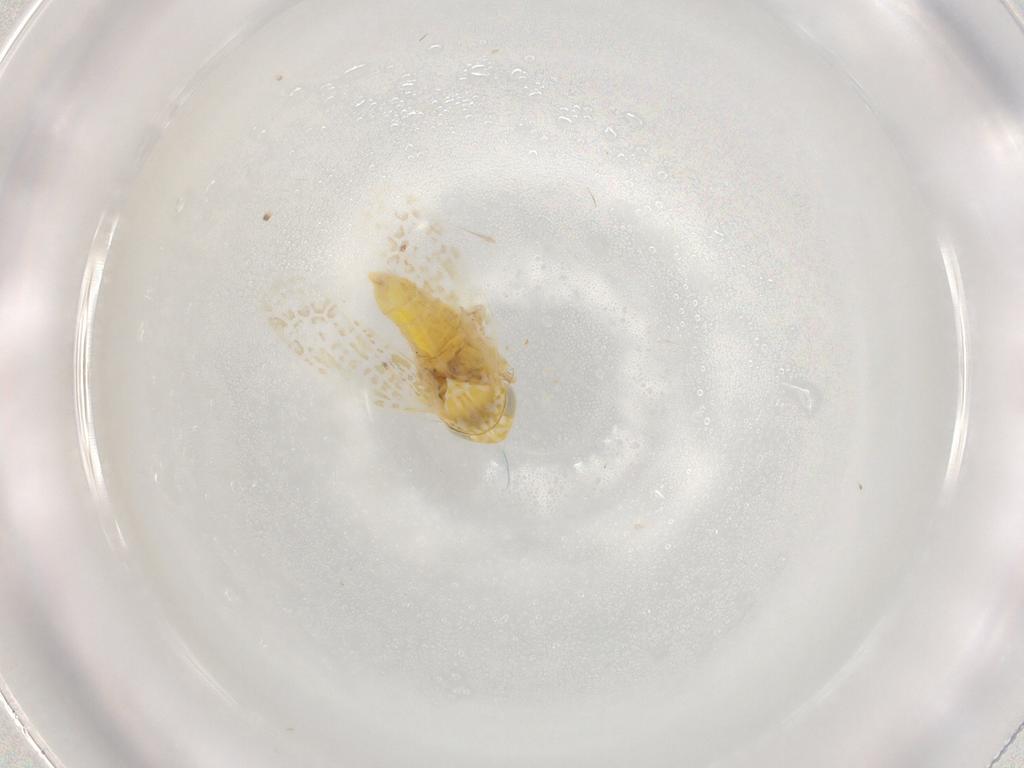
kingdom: Animalia
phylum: Arthropoda
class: Insecta
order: Hemiptera
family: Cicadellidae
